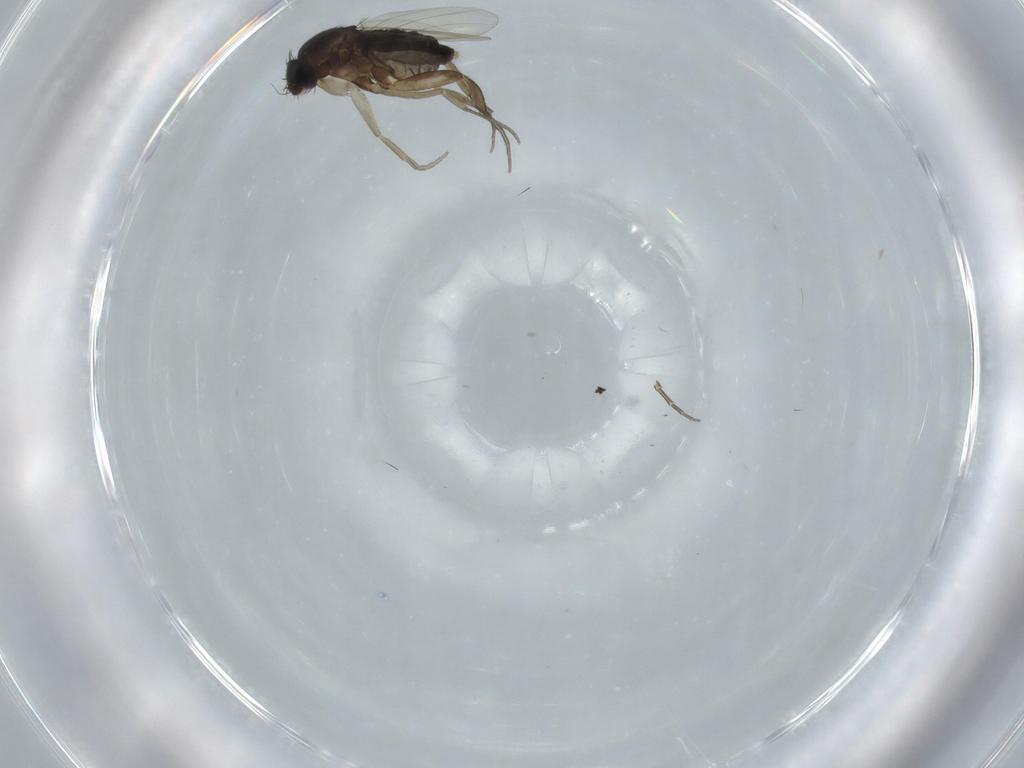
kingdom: Animalia
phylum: Arthropoda
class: Insecta
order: Diptera
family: Phoridae
